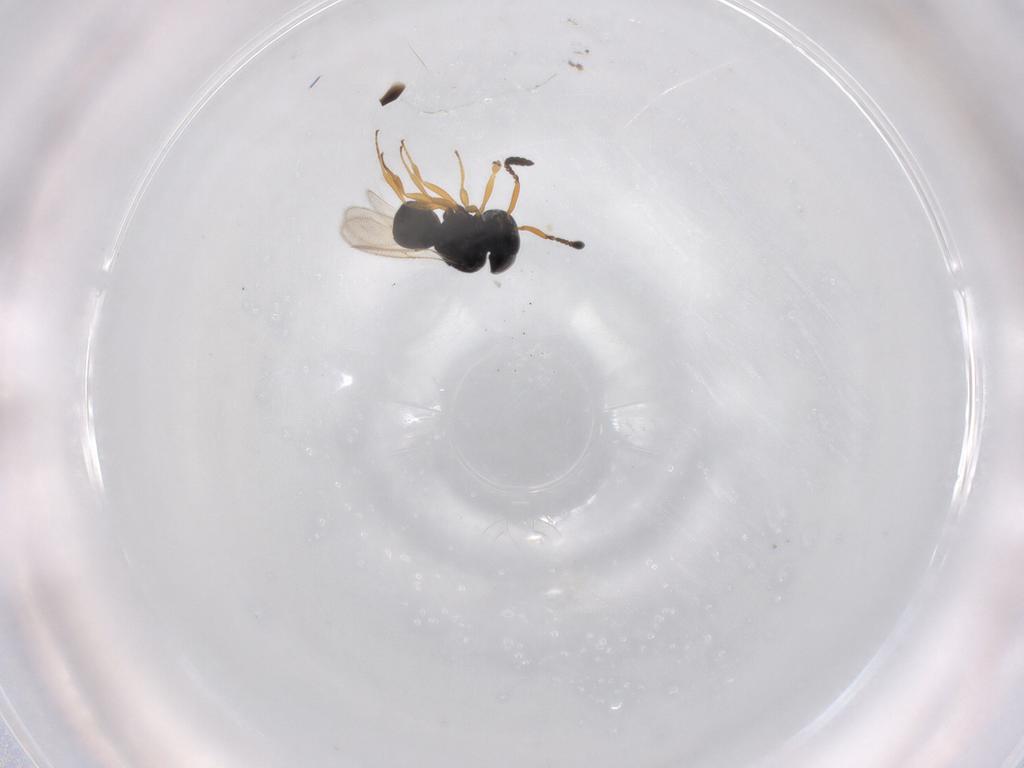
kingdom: Animalia
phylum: Arthropoda
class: Insecta
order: Hymenoptera
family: Scelionidae
